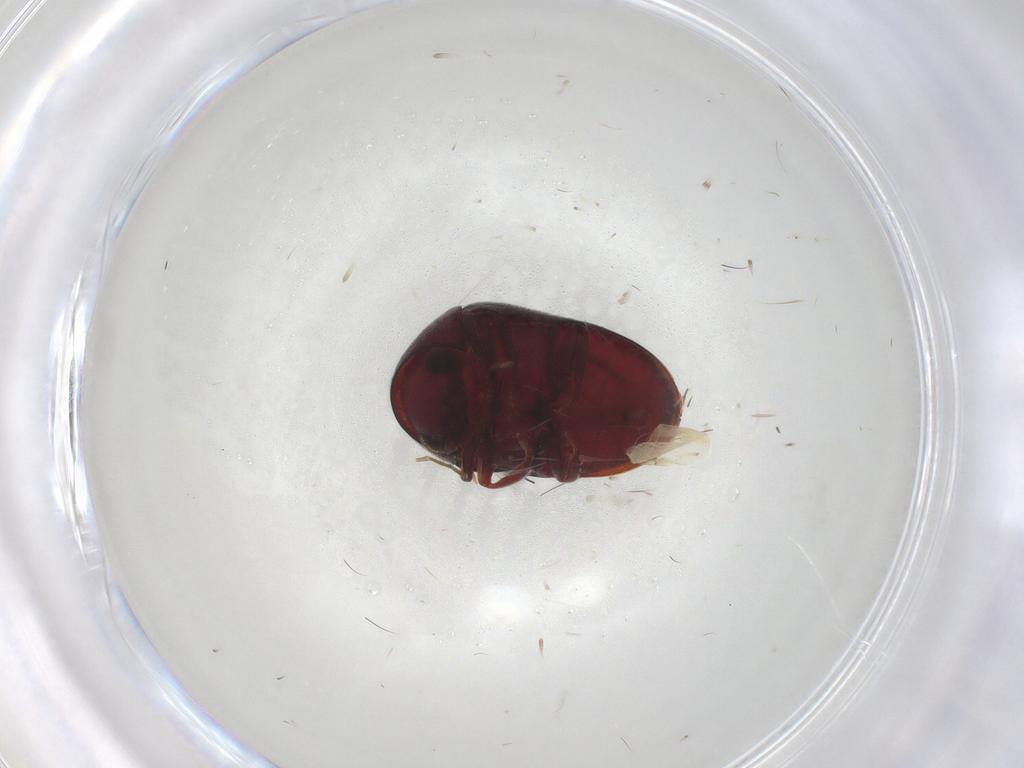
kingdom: Animalia
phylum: Arthropoda
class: Insecta
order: Coleoptera
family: Ptinidae
